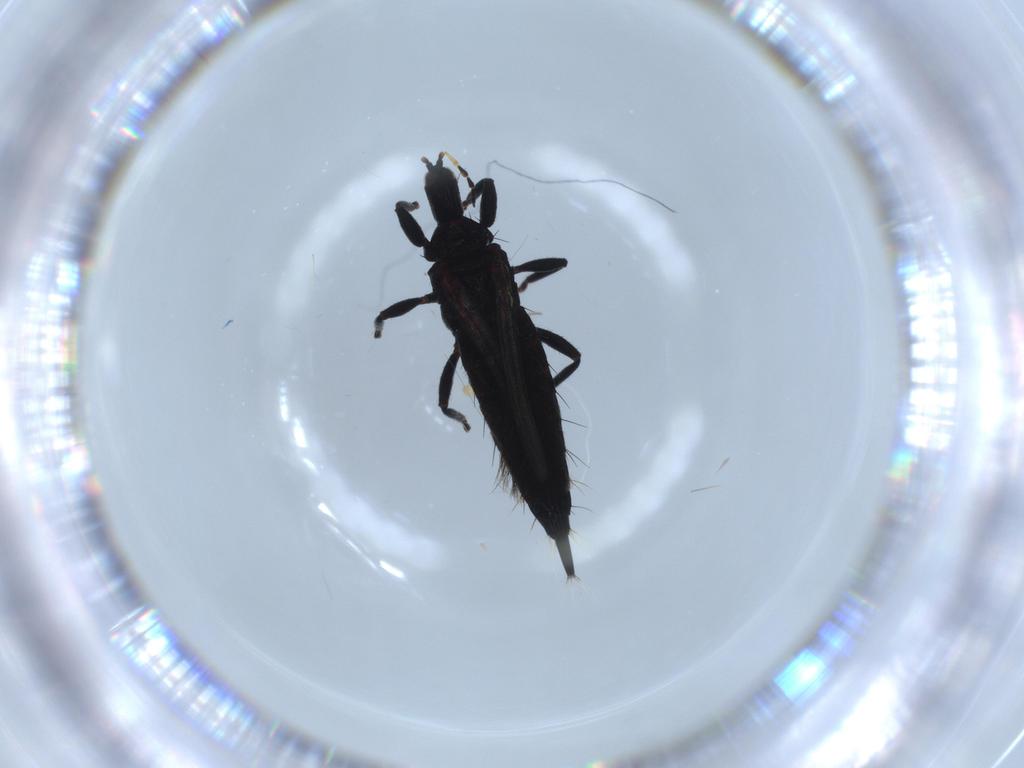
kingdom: Animalia
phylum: Arthropoda
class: Insecta
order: Thysanoptera
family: Phlaeothripidae
